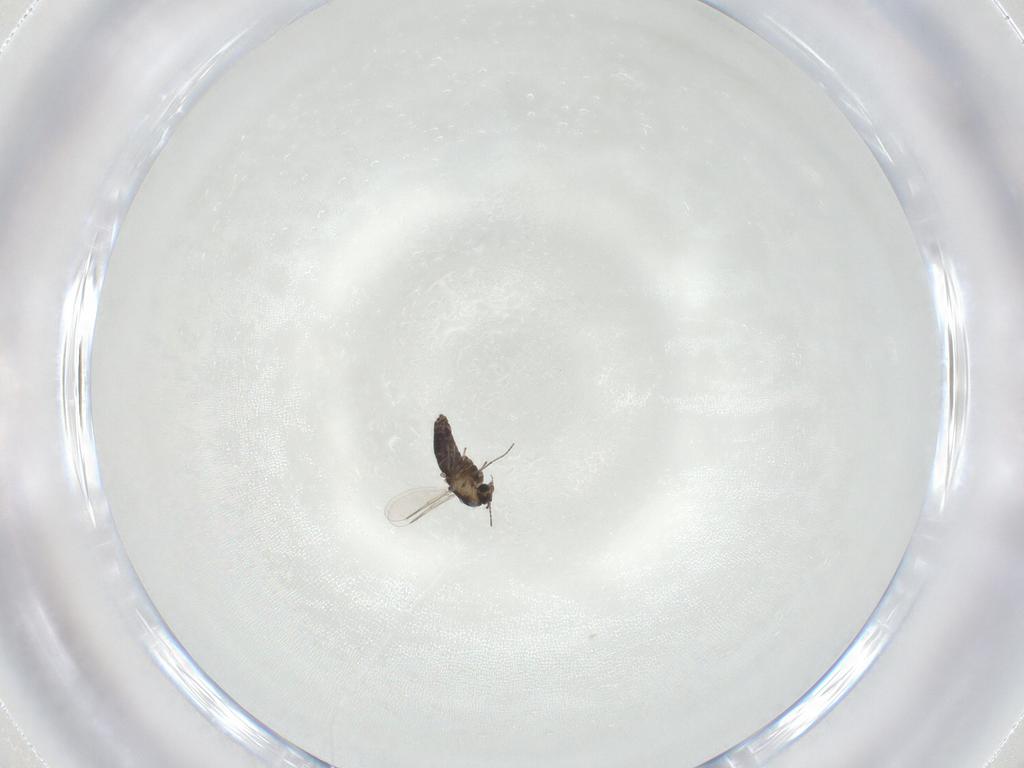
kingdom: Animalia
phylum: Arthropoda
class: Insecta
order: Diptera
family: Chironomidae
